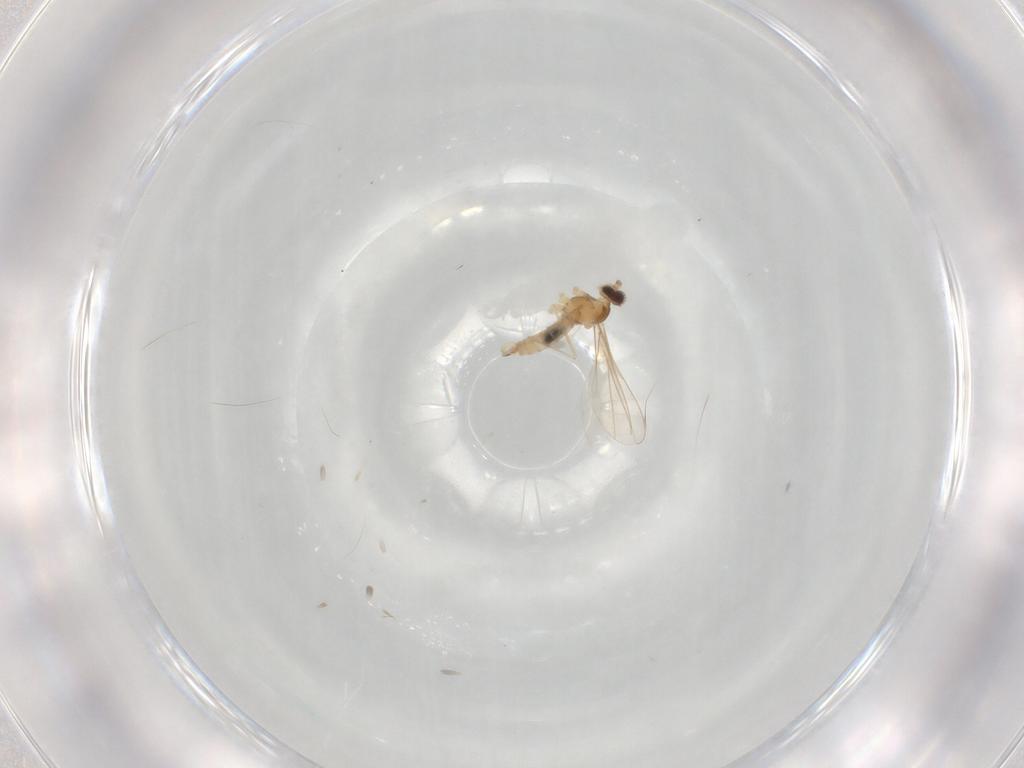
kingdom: Animalia
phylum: Arthropoda
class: Insecta
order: Diptera
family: Cecidomyiidae
